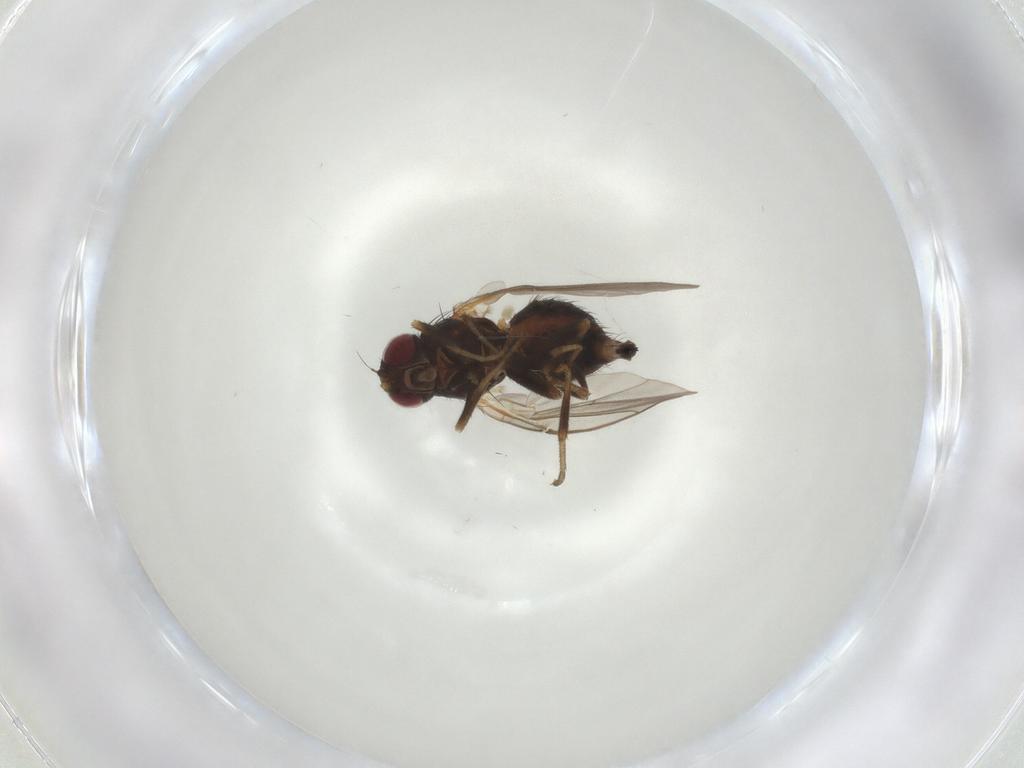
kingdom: Animalia
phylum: Arthropoda
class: Insecta
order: Diptera
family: Agromyzidae
